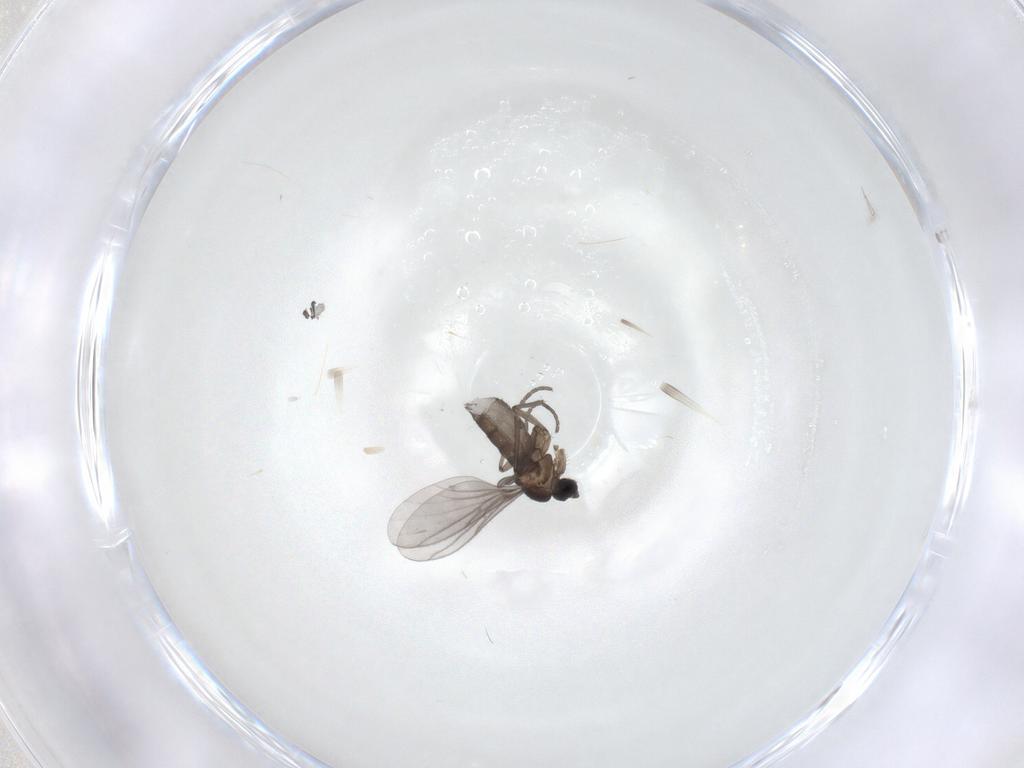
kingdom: Animalia
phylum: Arthropoda
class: Insecta
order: Diptera
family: Sciaridae
